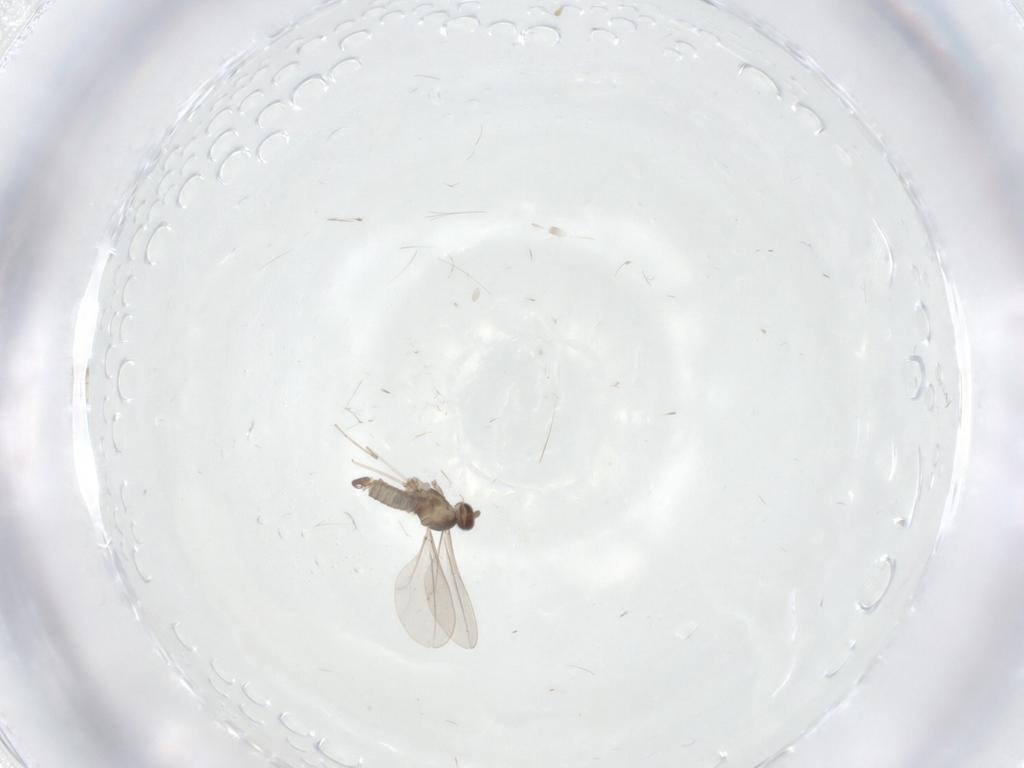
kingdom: Animalia
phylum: Arthropoda
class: Insecta
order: Diptera
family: Cecidomyiidae
